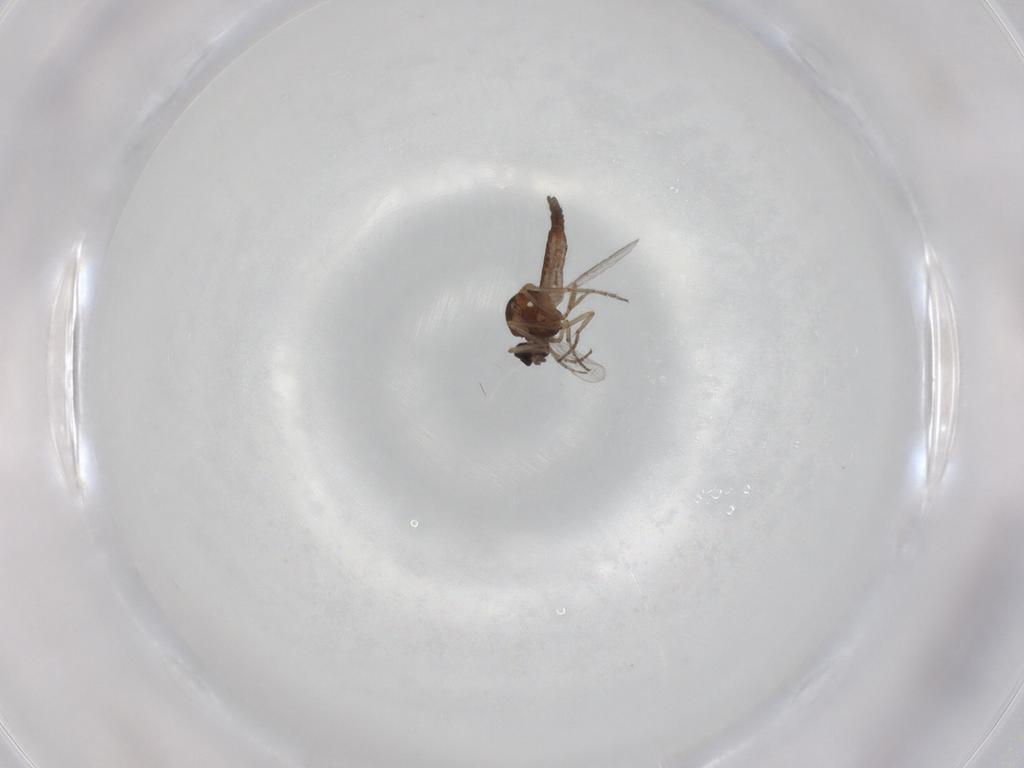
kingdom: Animalia
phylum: Arthropoda
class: Insecta
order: Diptera
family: Ceratopogonidae
